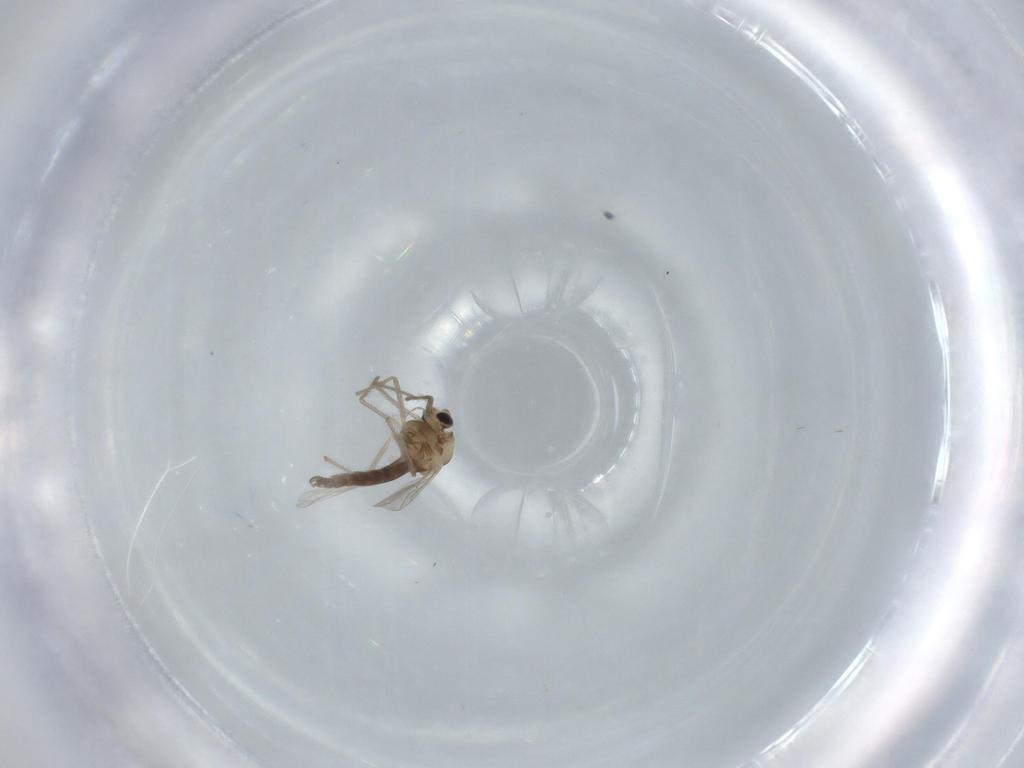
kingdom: Animalia
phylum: Arthropoda
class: Insecta
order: Diptera
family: Chironomidae
